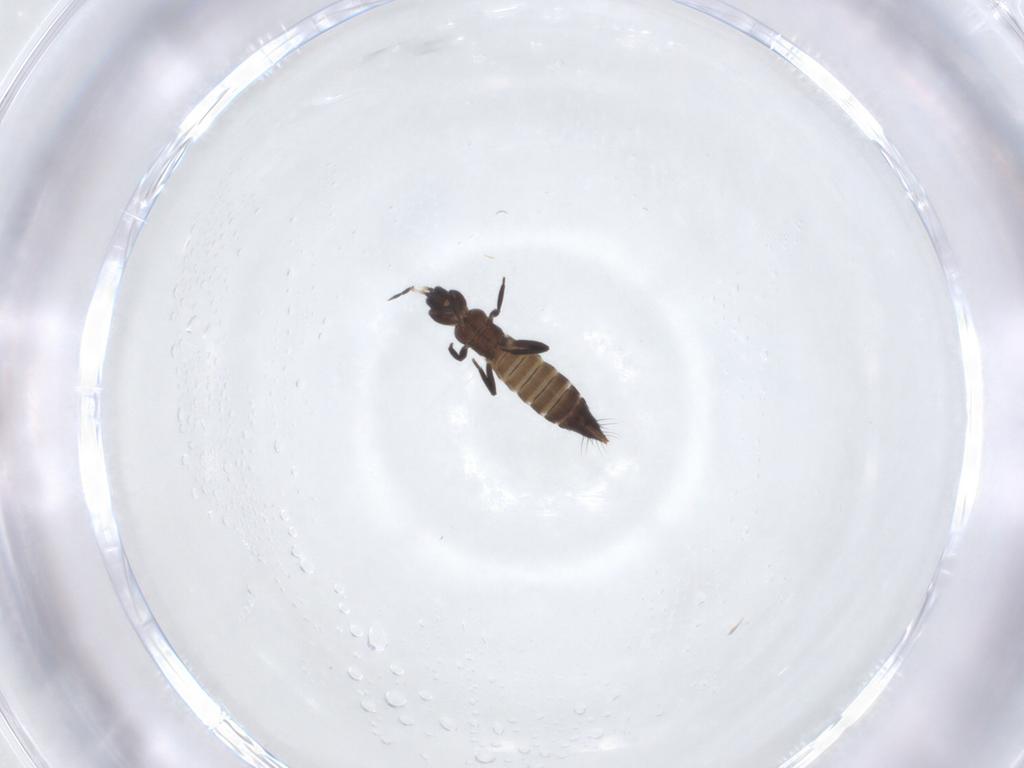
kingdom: Animalia
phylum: Arthropoda
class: Insecta
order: Thysanoptera
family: Aeolothripidae
